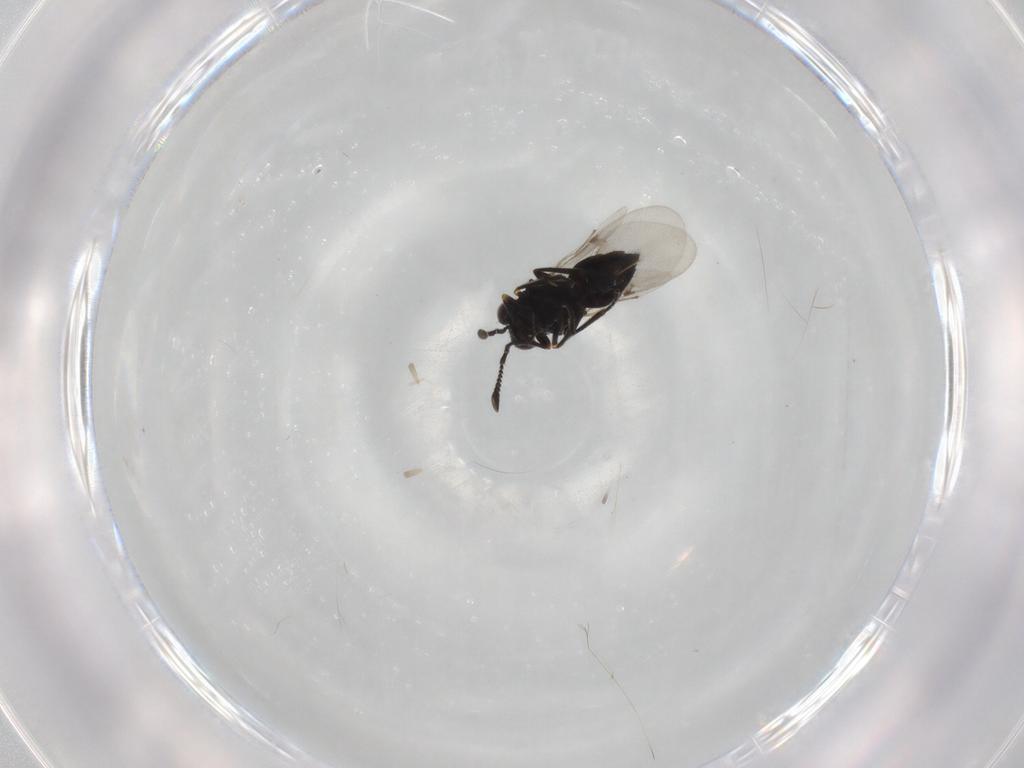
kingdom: Animalia
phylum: Arthropoda
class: Insecta
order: Hymenoptera
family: Encyrtidae
